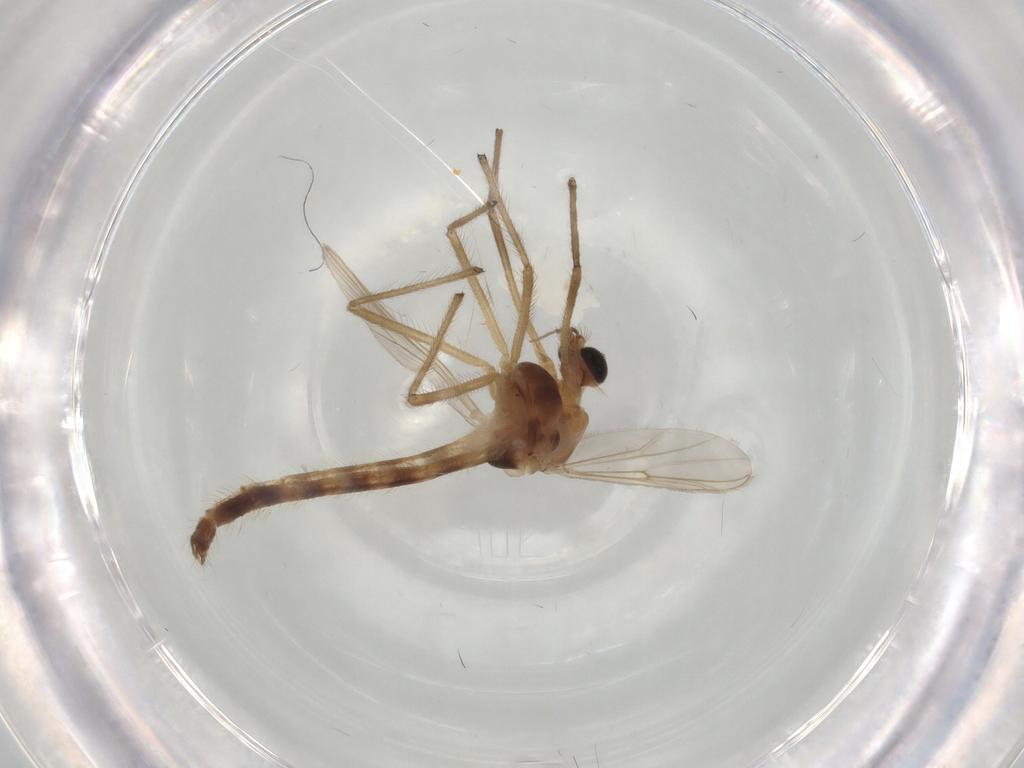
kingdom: Animalia
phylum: Arthropoda
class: Insecta
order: Diptera
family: Chironomidae
